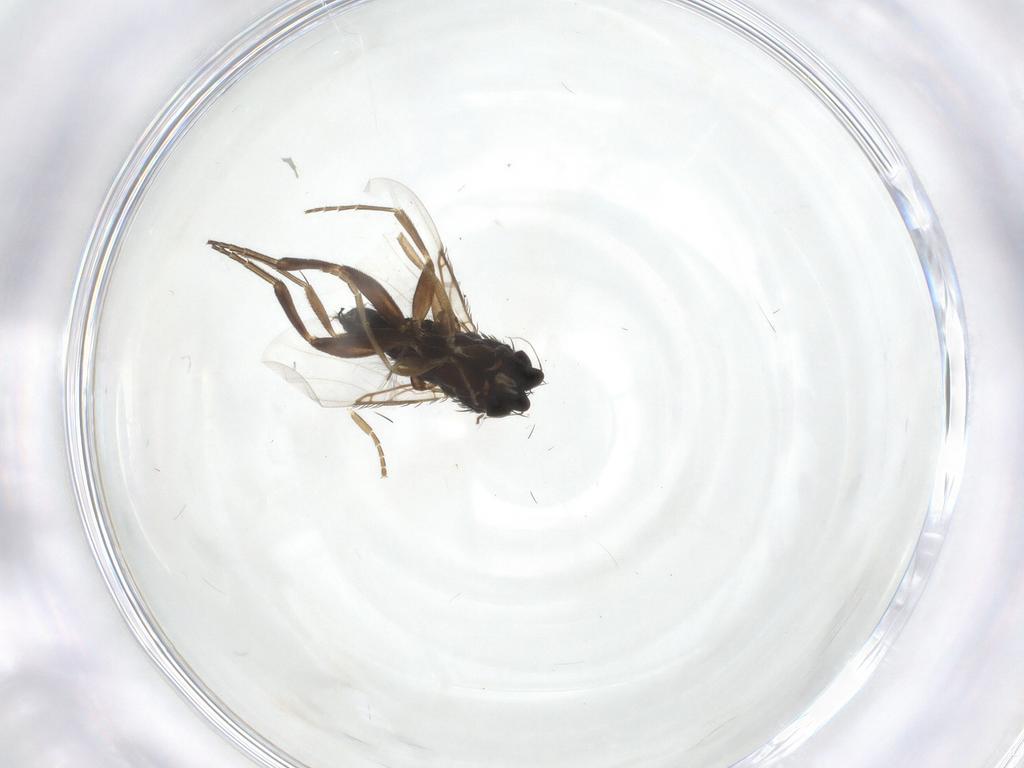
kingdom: Animalia
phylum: Arthropoda
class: Insecta
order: Diptera
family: Phoridae
